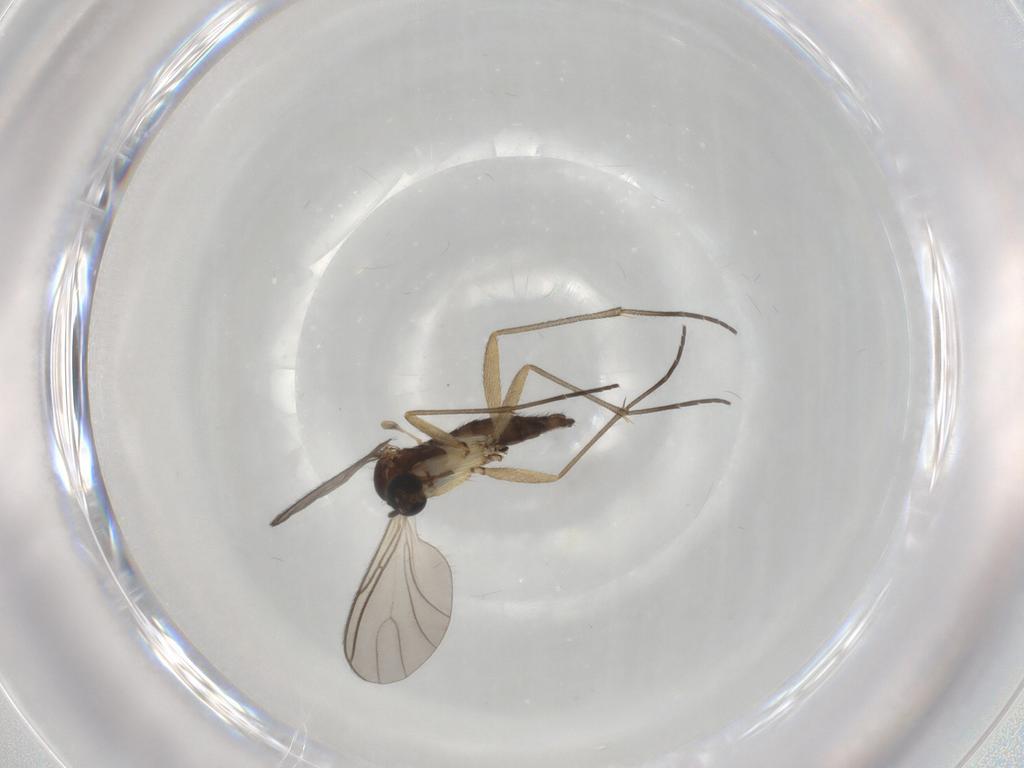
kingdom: Animalia
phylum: Arthropoda
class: Insecta
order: Diptera
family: Sciaridae
